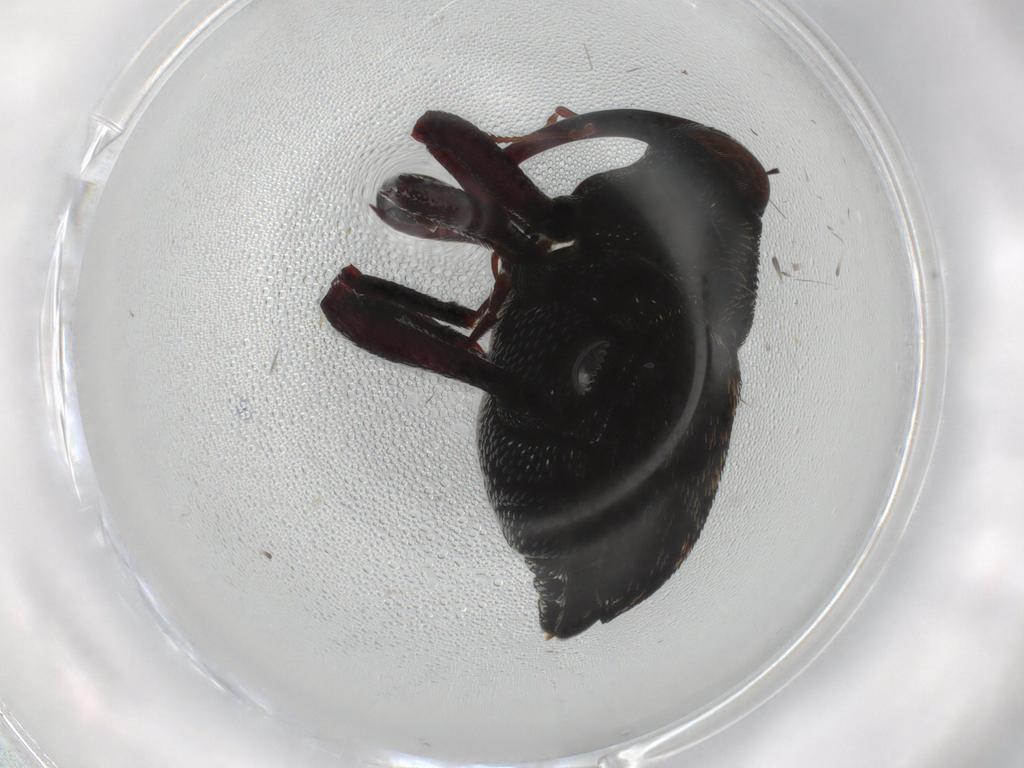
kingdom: Animalia
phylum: Arthropoda
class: Insecta
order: Coleoptera
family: Curculionidae
